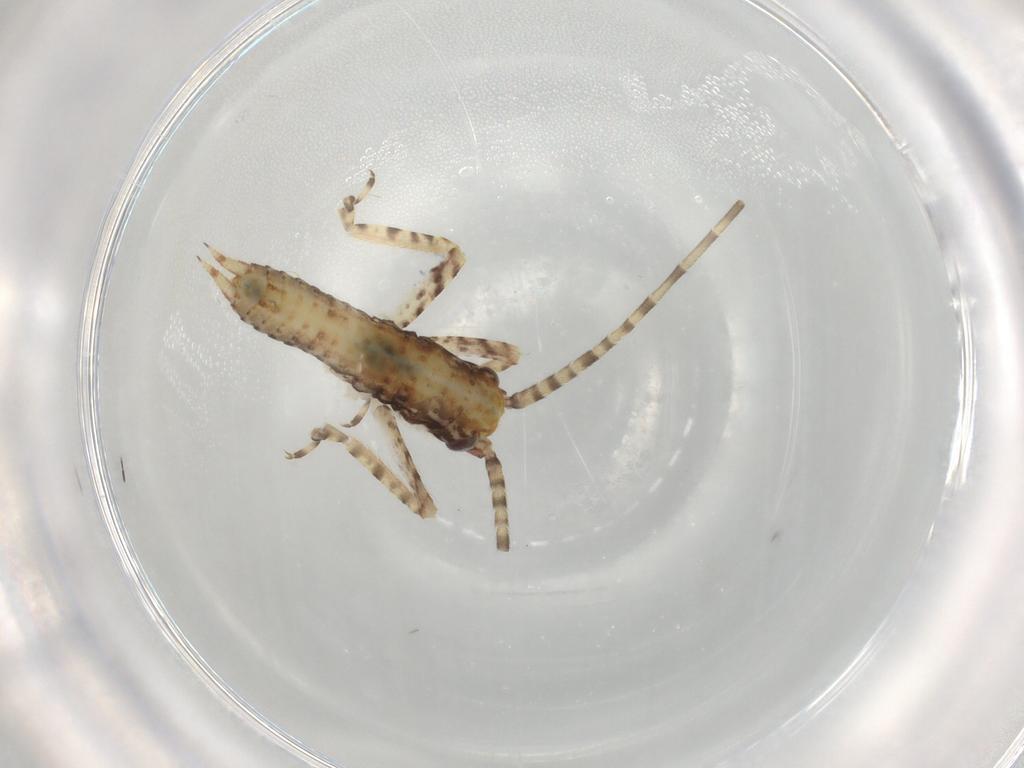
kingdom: Animalia
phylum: Arthropoda
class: Insecta
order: Orthoptera
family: Gryllidae
